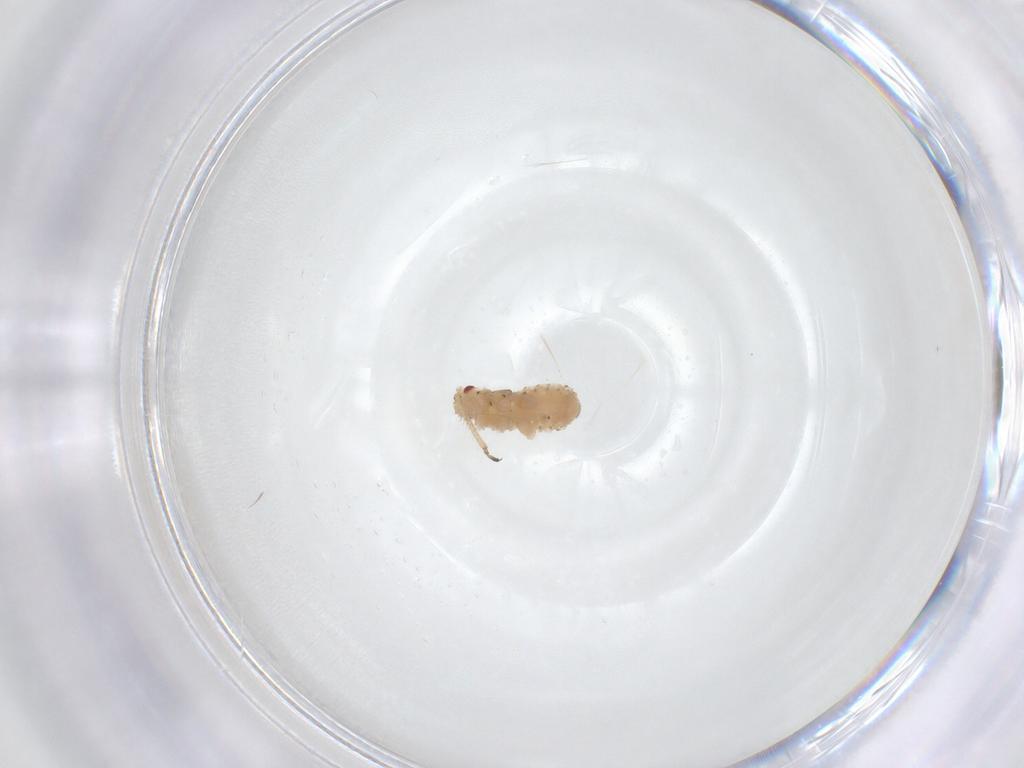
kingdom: Animalia
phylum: Arthropoda
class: Insecta
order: Hemiptera
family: Aphididae
